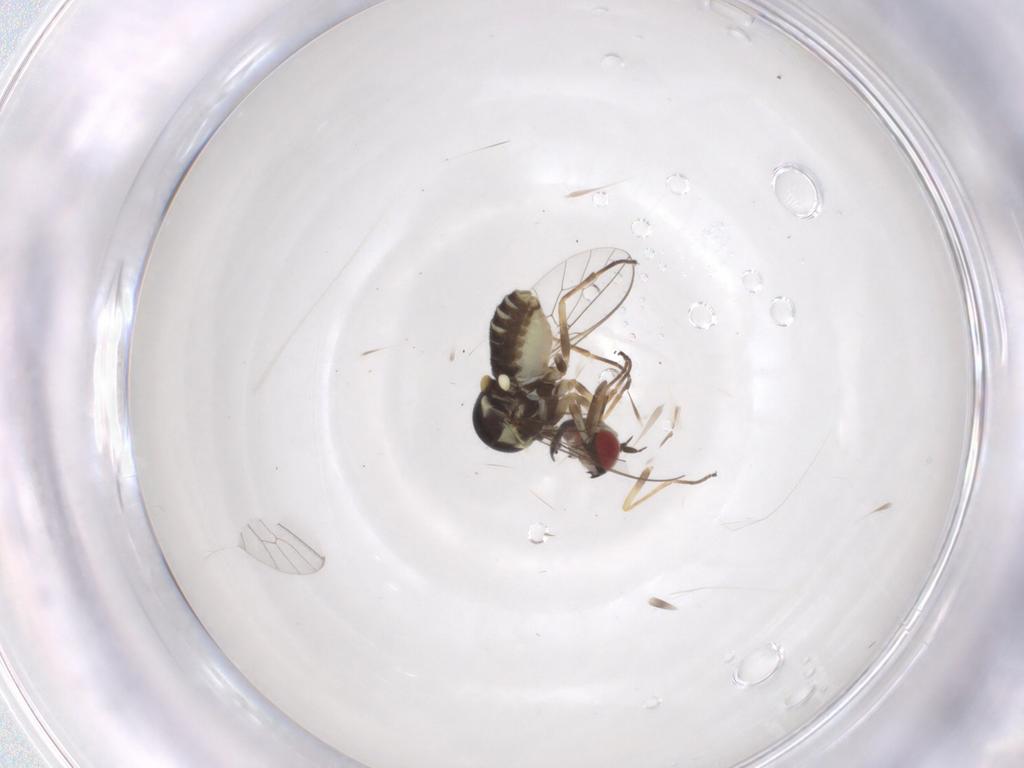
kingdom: Animalia
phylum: Arthropoda
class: Insecta
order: Diptera
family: Bombyliidae
